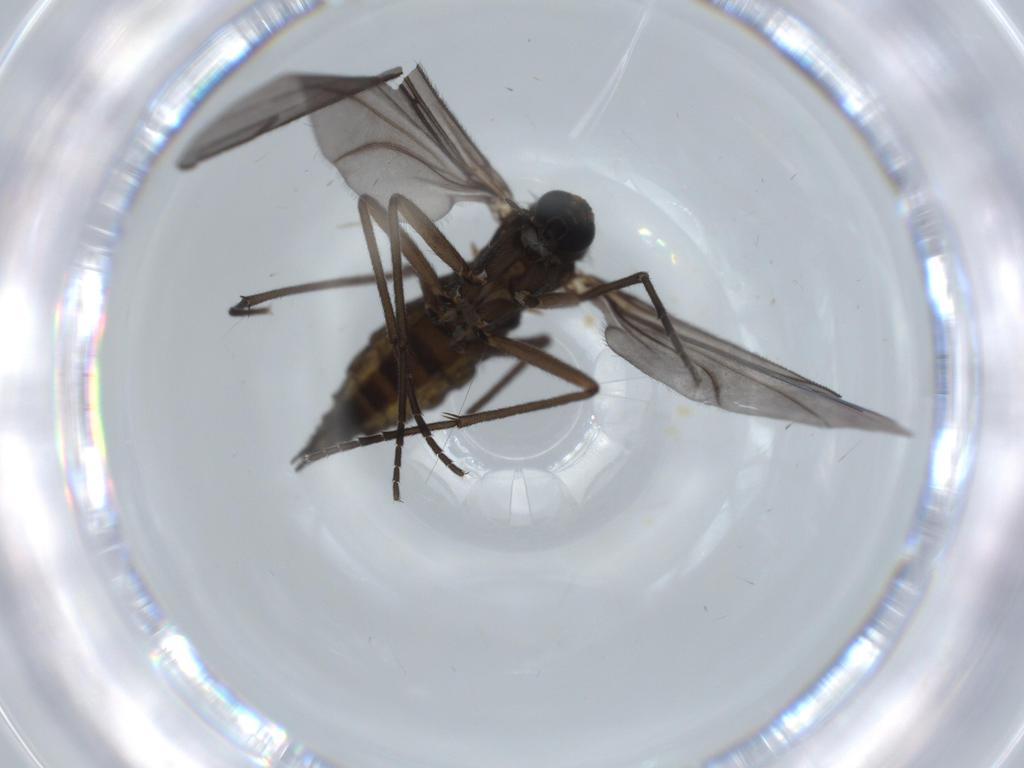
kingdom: Animalia
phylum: Arthropoda
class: Insecta
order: Diptera
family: Sciaridae
